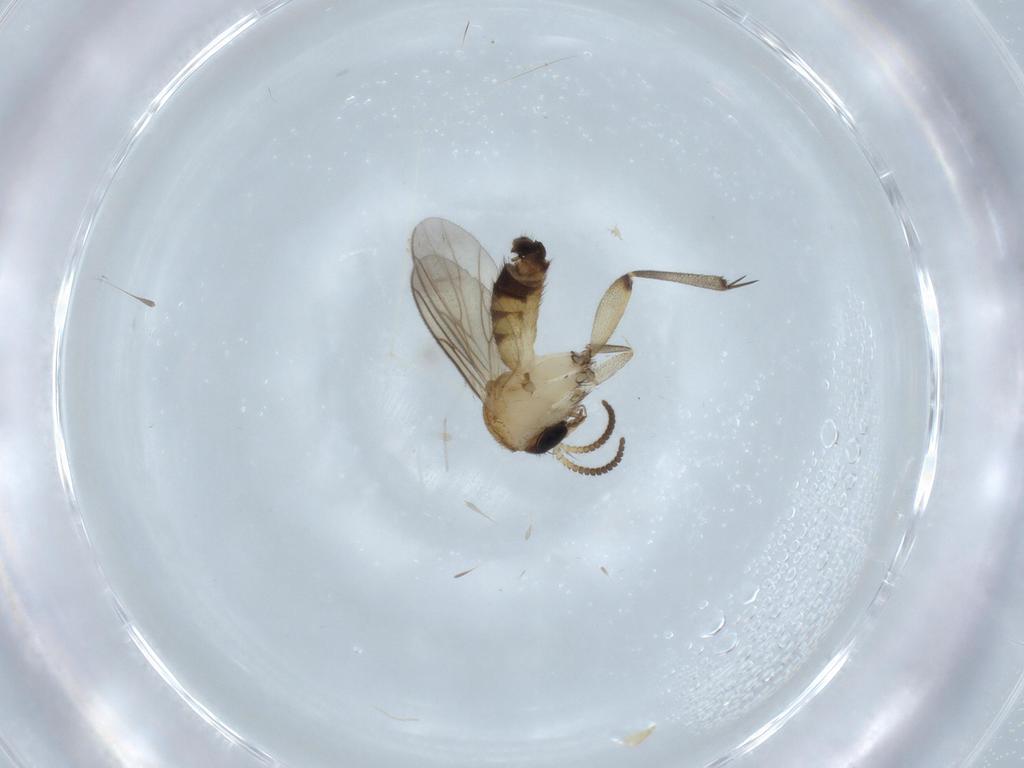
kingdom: Animalia
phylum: Arthropoda
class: Insecta
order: Diptera
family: Mycetophilidae
